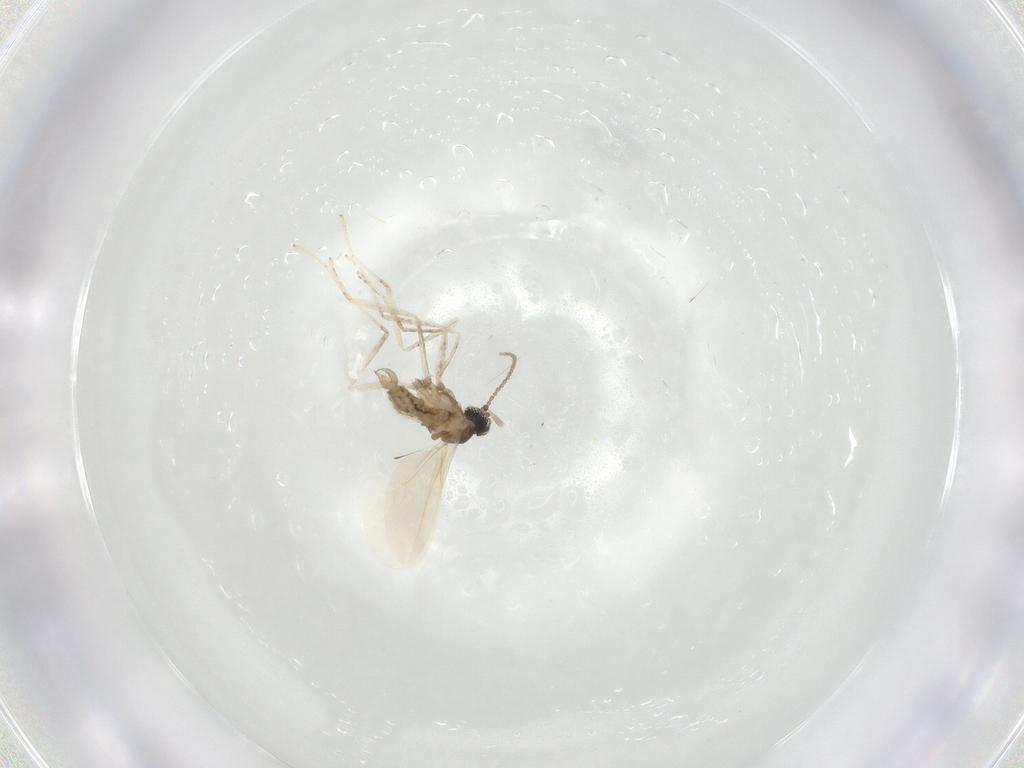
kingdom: Animalia
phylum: Arthropoda
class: Insecta
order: Diptera
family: Cecidomyiidae
